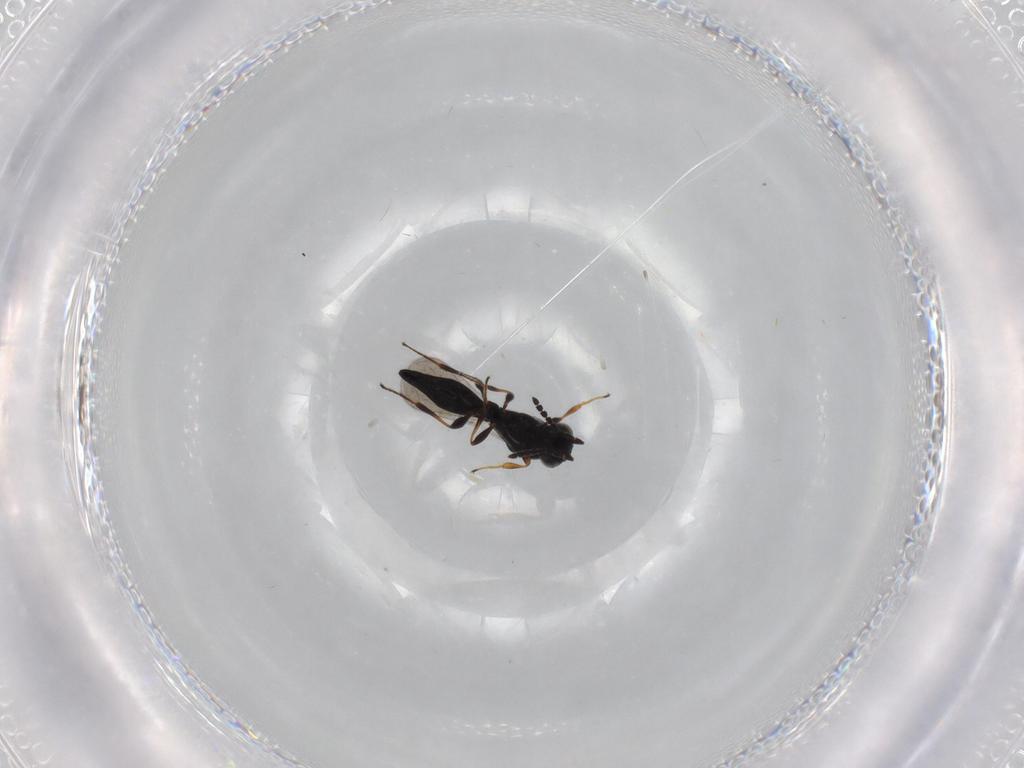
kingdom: Animalia
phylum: Arthropoda
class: Insecta
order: Hymenoptera
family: Platygastridae
